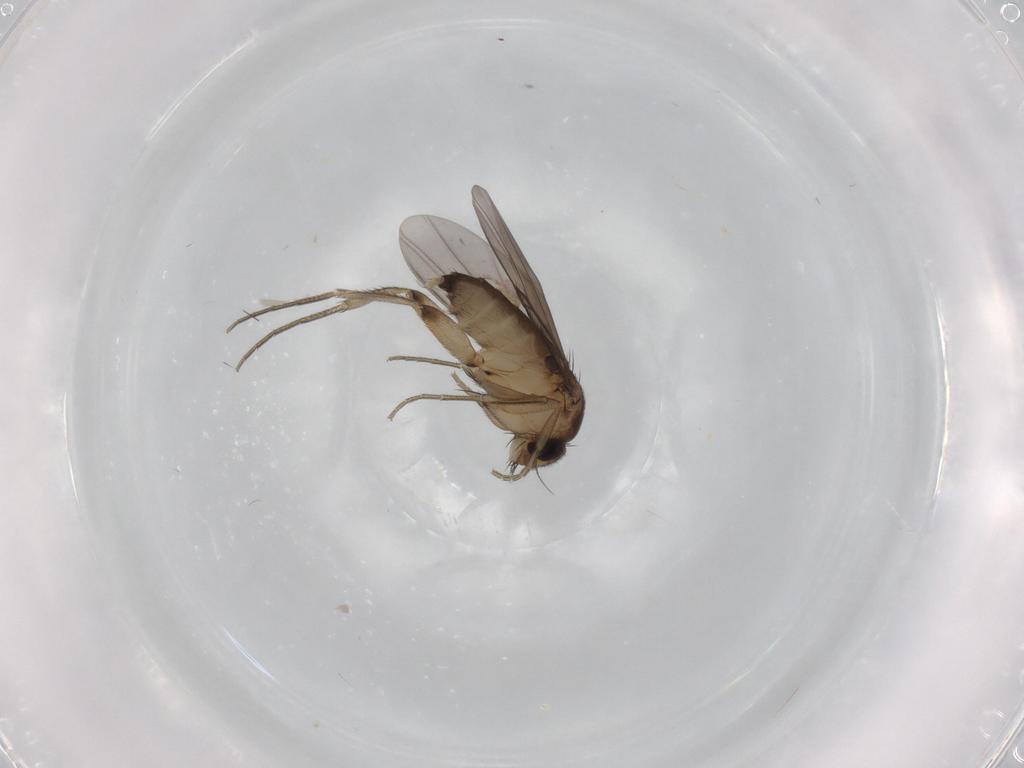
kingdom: Animalia
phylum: Arthropoda
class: Insecta
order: Diptera
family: Phoridae
